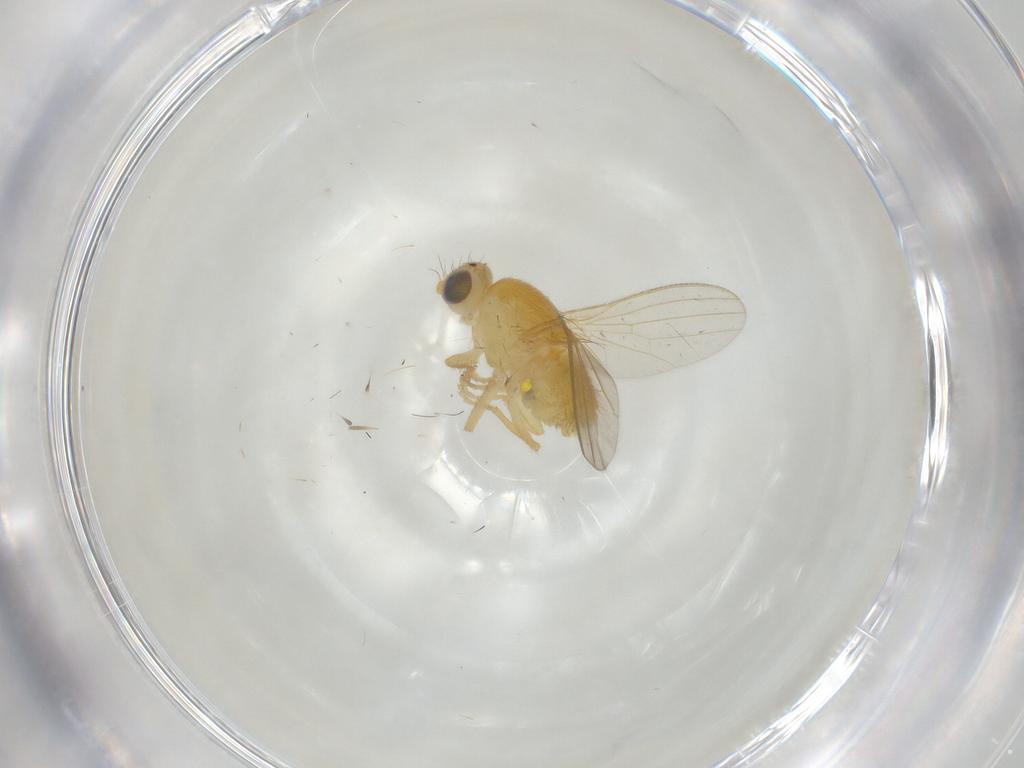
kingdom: Animalia
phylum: Arthropoda
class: Insecta
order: Diptera
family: Chyromyidae
